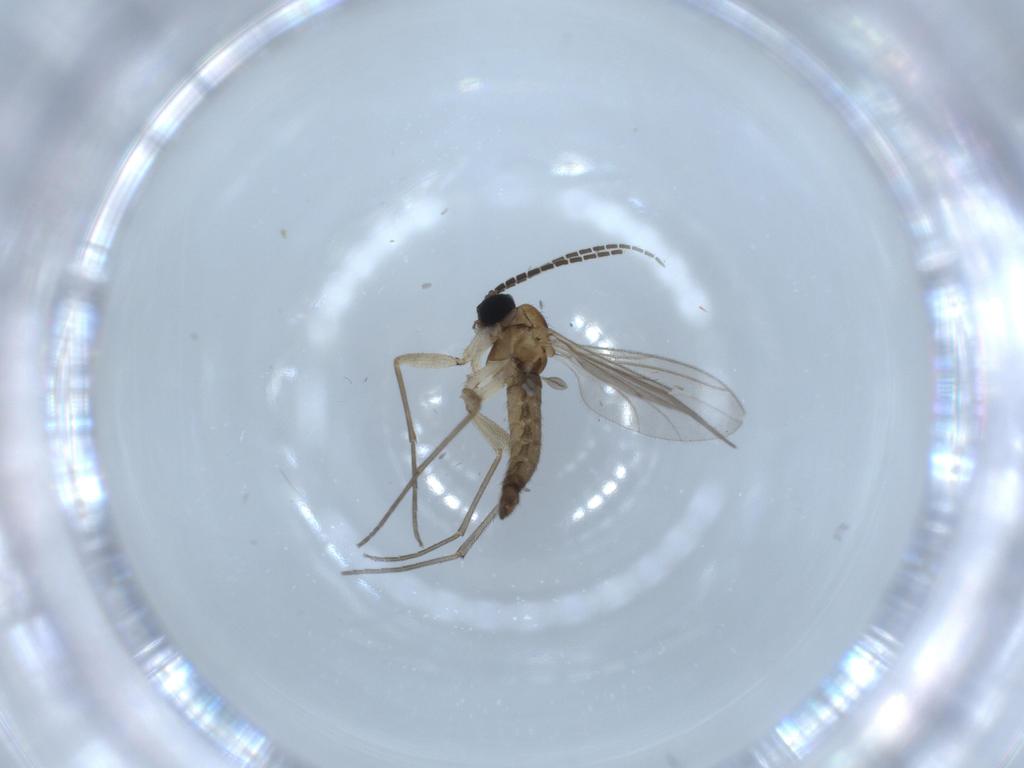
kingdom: Animalia
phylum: Arthropoda
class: Insecta
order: Diptera
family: Sciaridae
